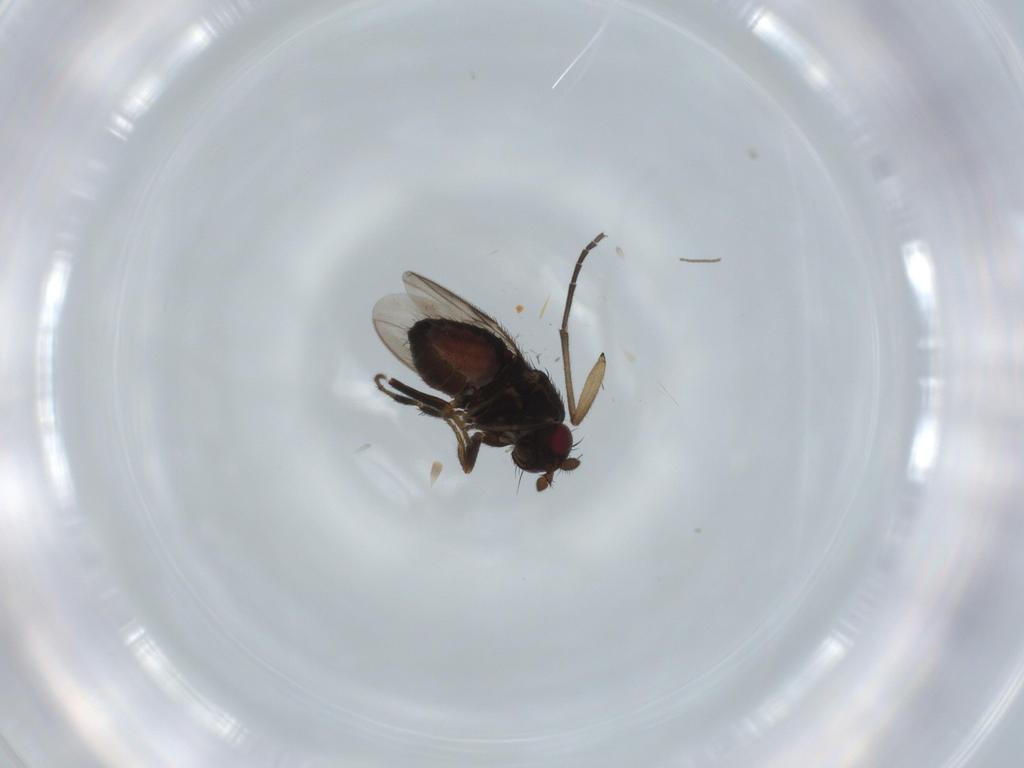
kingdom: Animalia
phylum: Arthropoda
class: Insecta
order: Diptera
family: Sphaeroceridae
